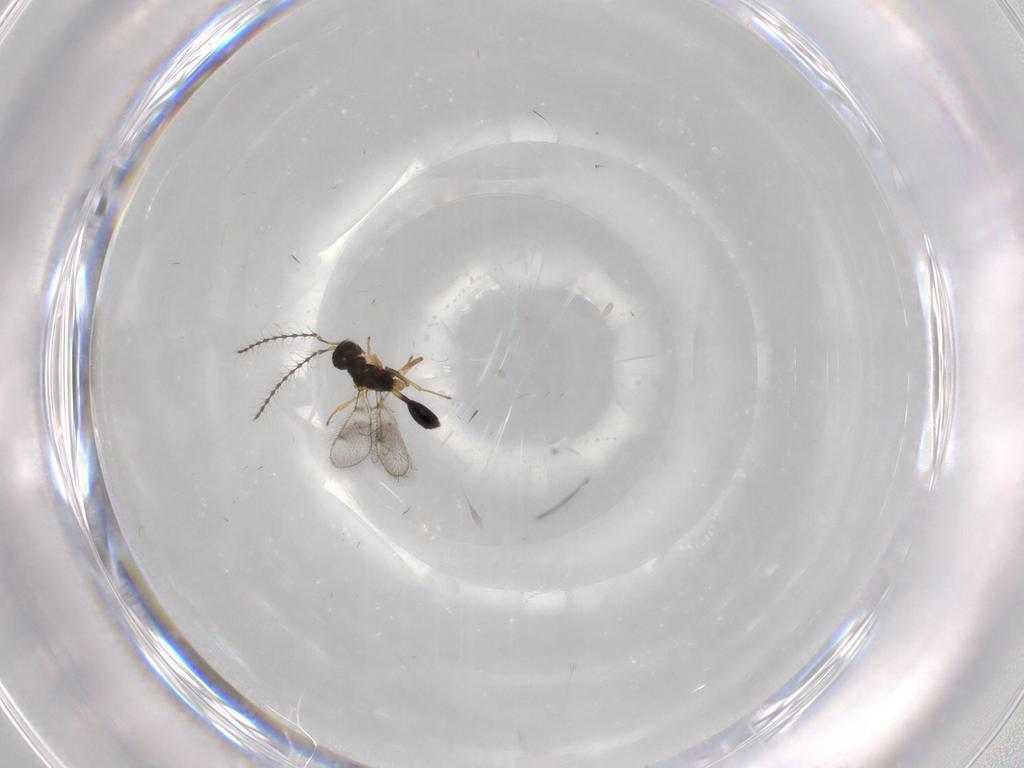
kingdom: Animalia
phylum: Arthropoda
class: Insecta
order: Hymenoptera
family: Diparidae
